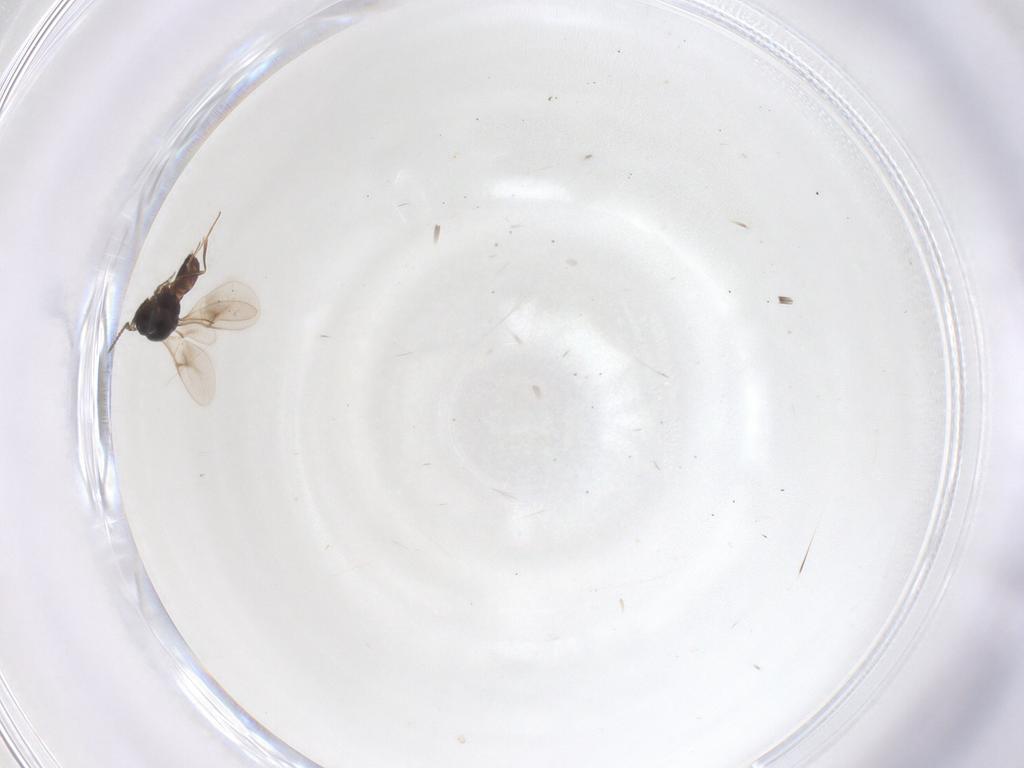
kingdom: Animalia
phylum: Arthropoda
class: Insecta
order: Hymenoptera
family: Scelionidae
